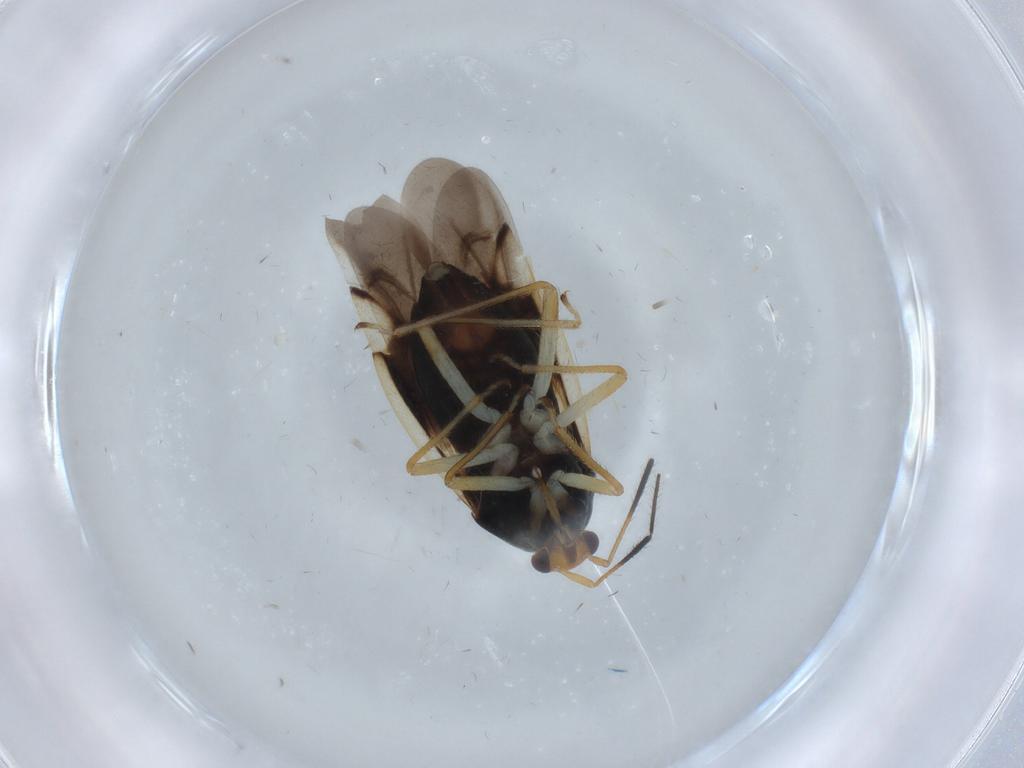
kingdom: Animalia
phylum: Arthropoda
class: Insecta
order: Hemiptera
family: Miridae
